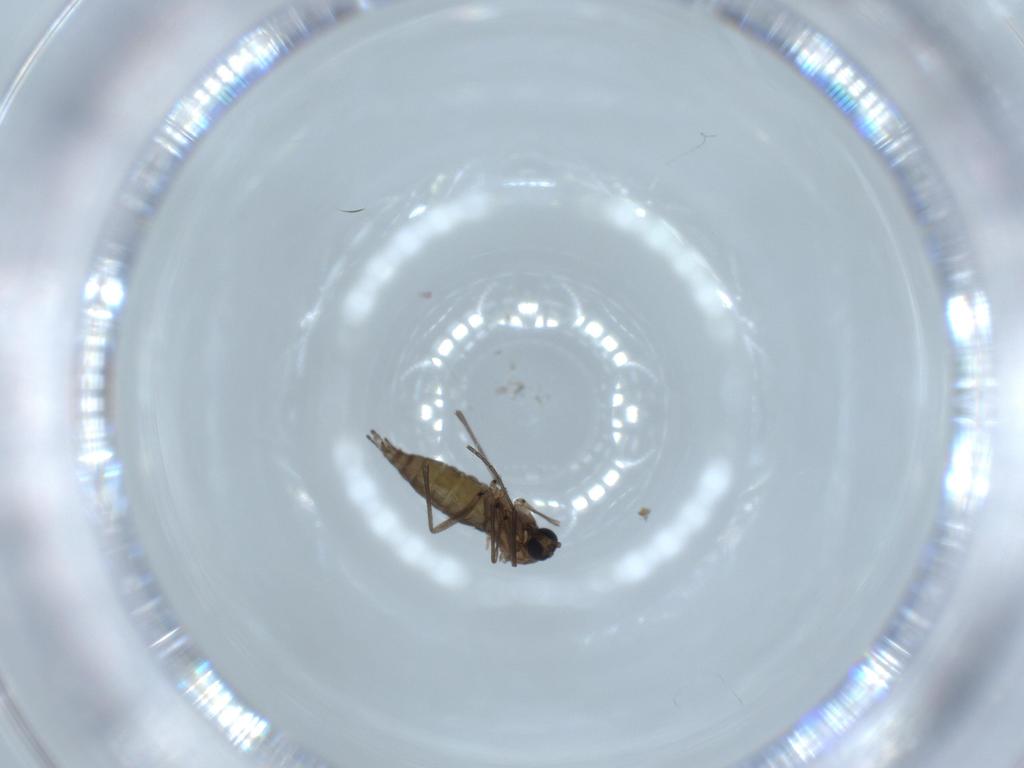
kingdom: Animalia
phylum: Arthropoda
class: Insecta
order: Diptera
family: Sciaridae
